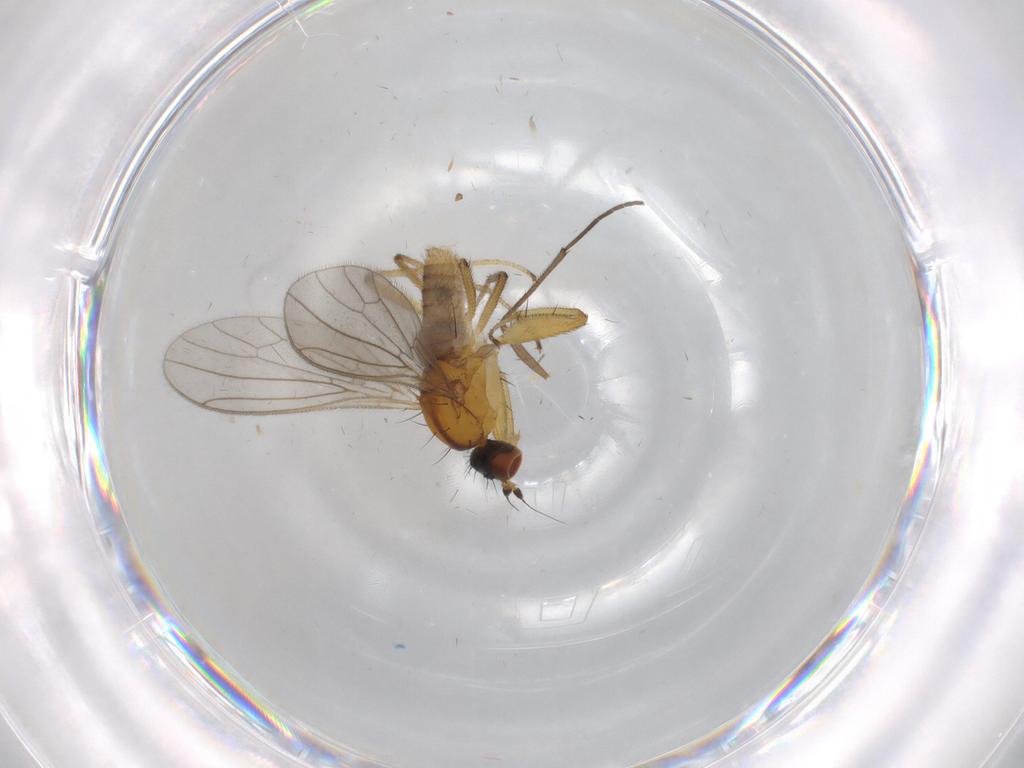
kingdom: Animalia
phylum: Arthropoda
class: Insecta
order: Diptera
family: Empididae
